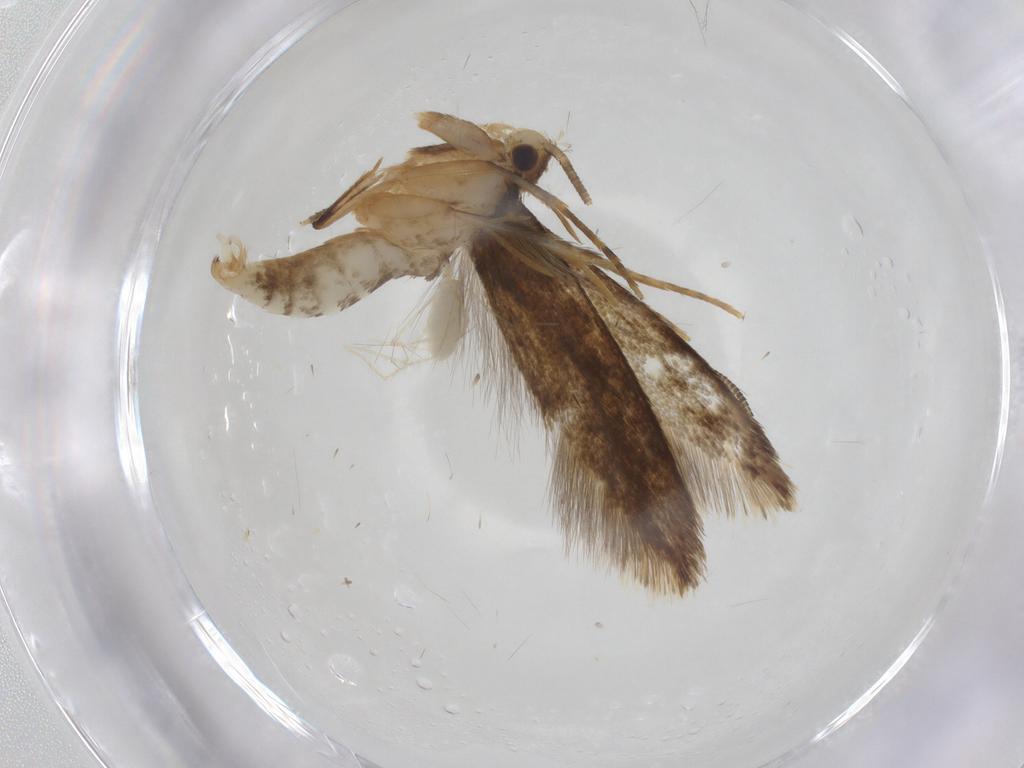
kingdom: Animalia
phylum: Arthropoda
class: Insecta
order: Lepidoptera
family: Tineidae
